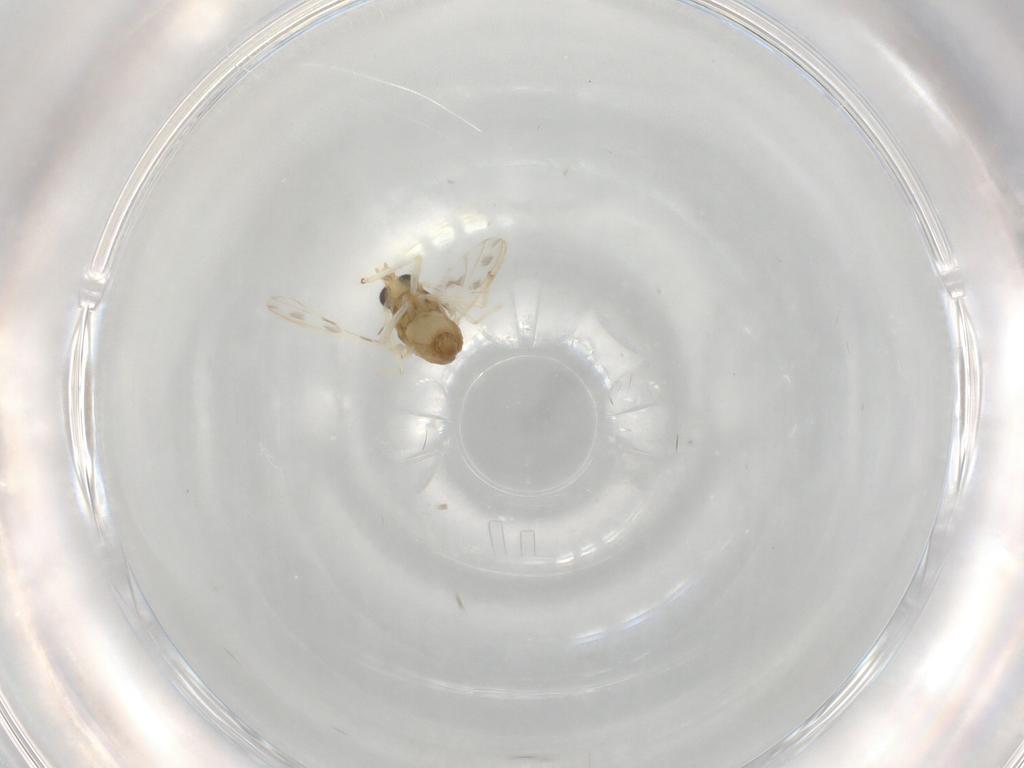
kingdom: Animalia
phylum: Arthropoda
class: Insecta
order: Diptera
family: Chironomidae
